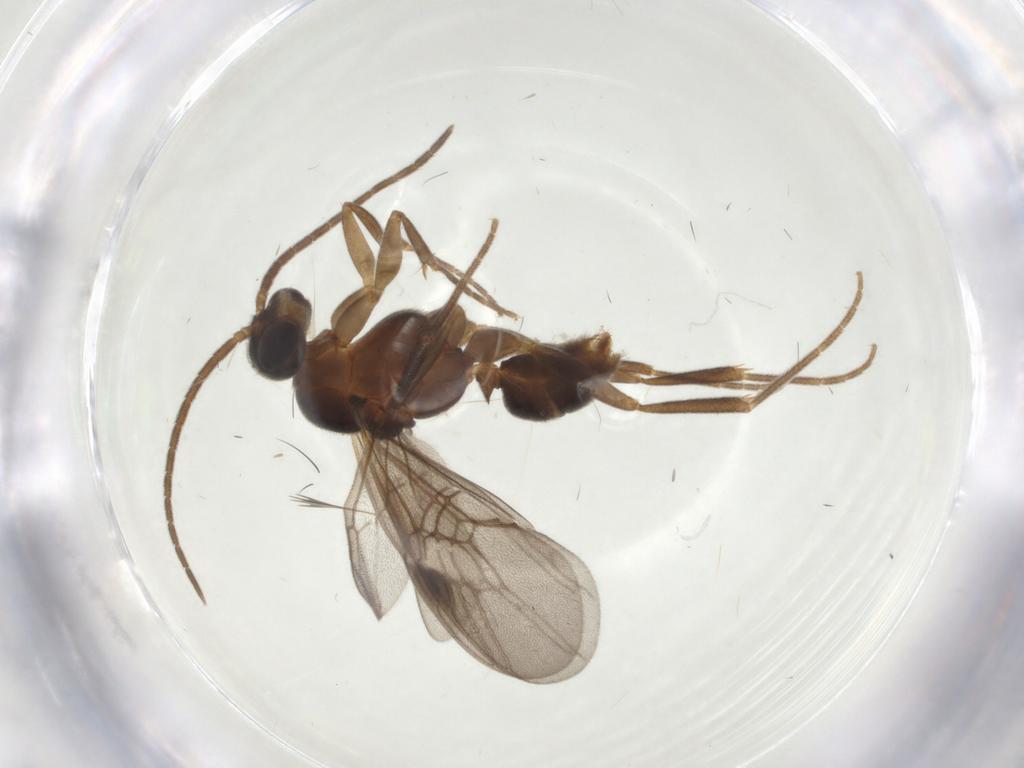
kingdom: Animalia
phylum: Arthropoda
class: Insecta
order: Hymenoptera
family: Formicidae
